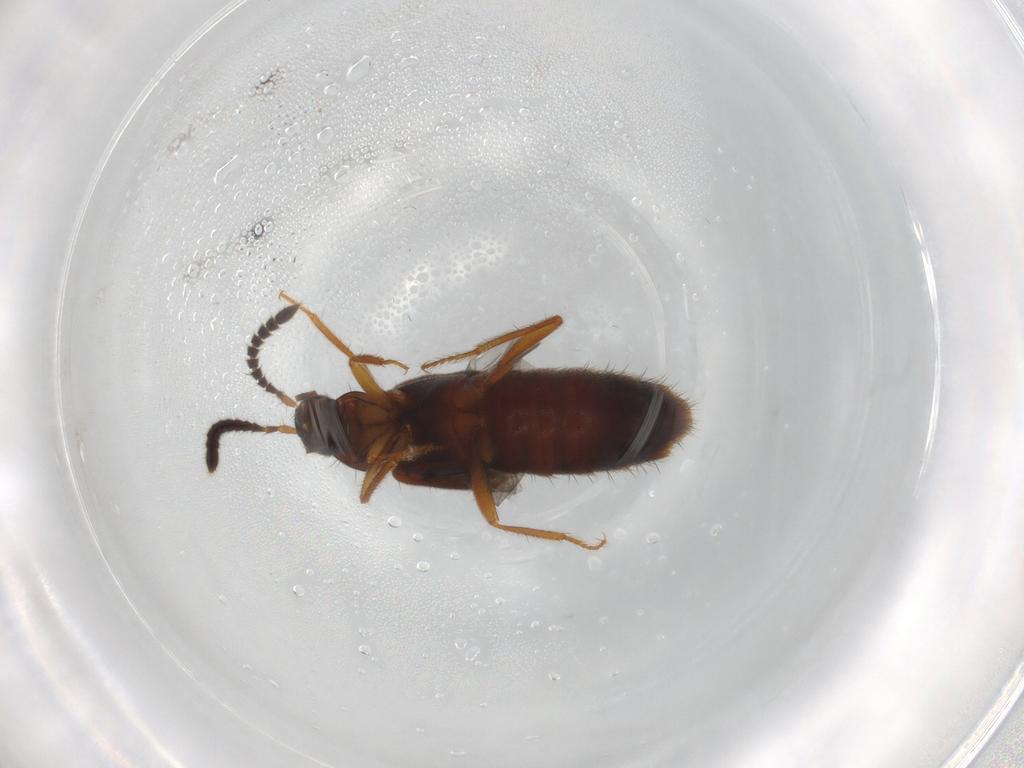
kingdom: Animalia
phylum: Arthropoda
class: Insecta
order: Coleoptera
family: Staphylinidae
